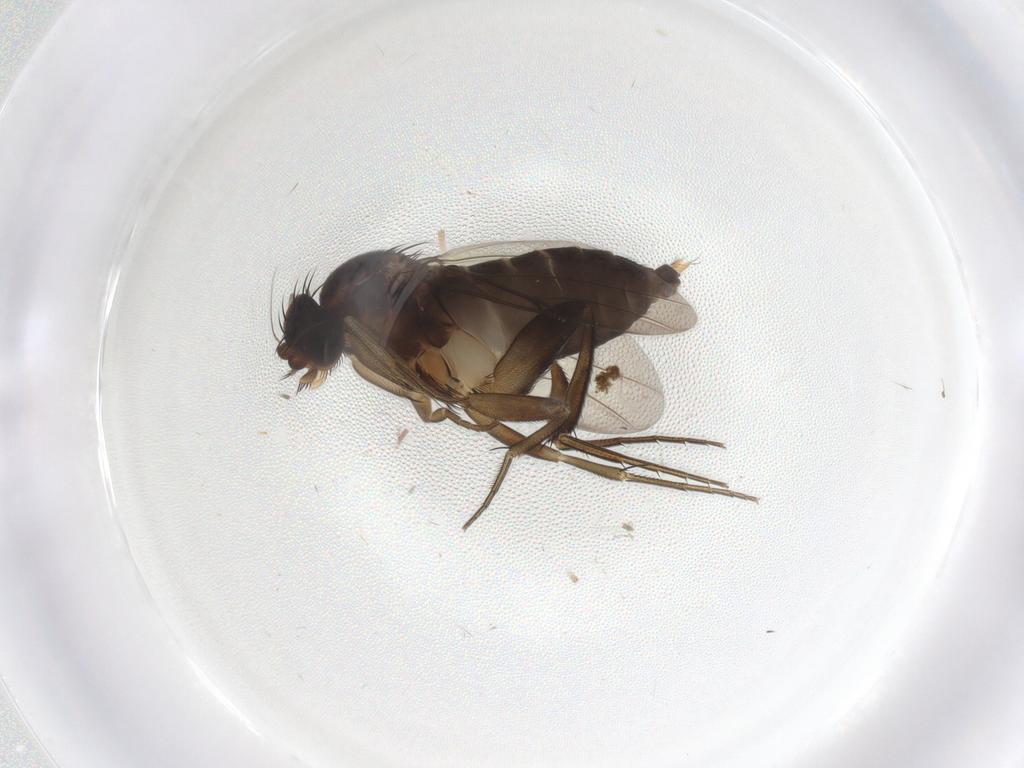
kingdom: Animalia
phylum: Arthropoda
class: Insecta
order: Diptera
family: Phoridae
